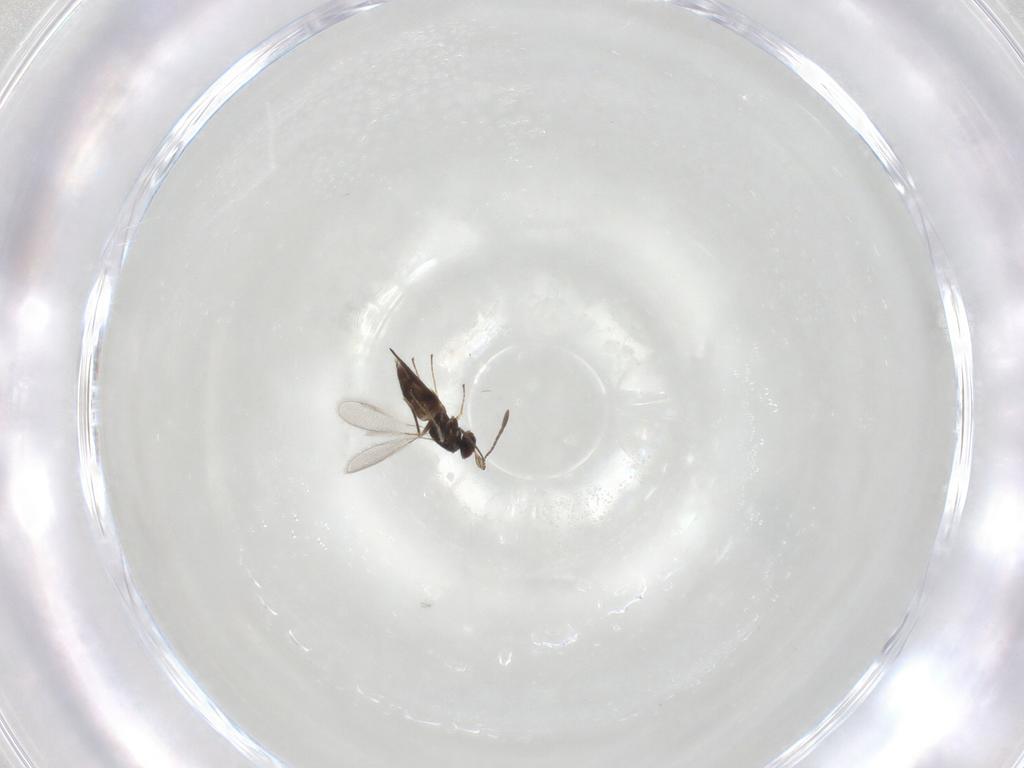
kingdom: Animalia
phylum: Arthropoda
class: Insecta
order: Hymenoptera
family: Mymaridae
